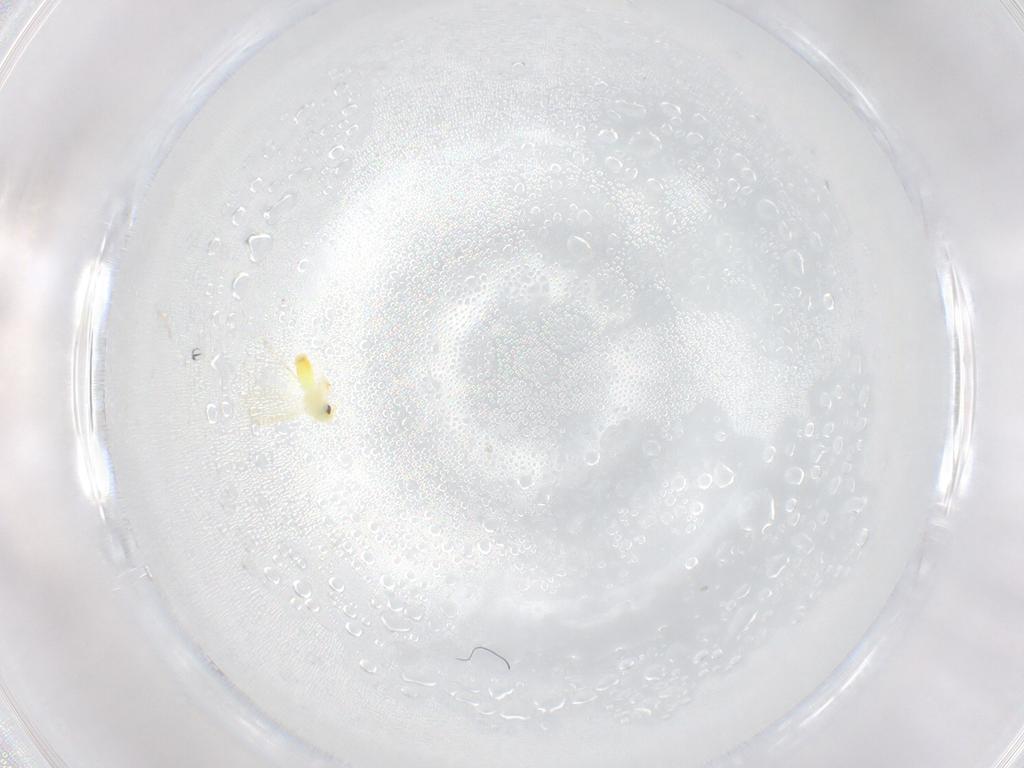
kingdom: Animalia
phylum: Arthropoda
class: Insecta
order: Hemiptera
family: Aleyrodidae
